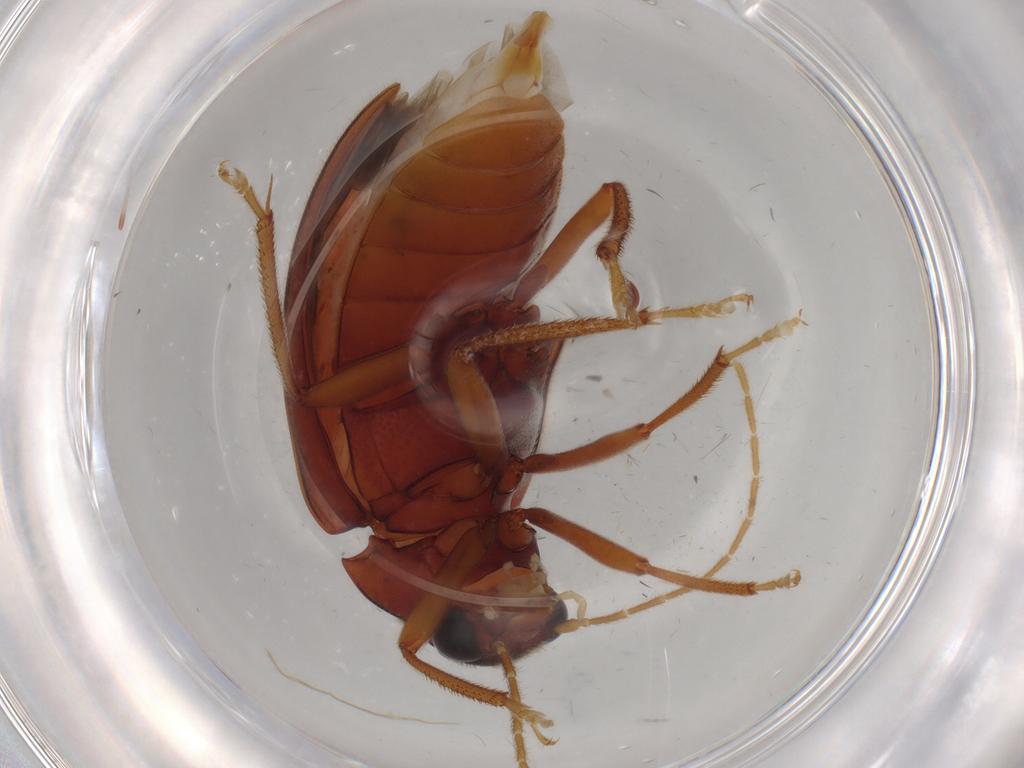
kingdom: Animalia
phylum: Arthropoda
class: Insecta
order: Coleoptera
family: Ptilodactylidae
